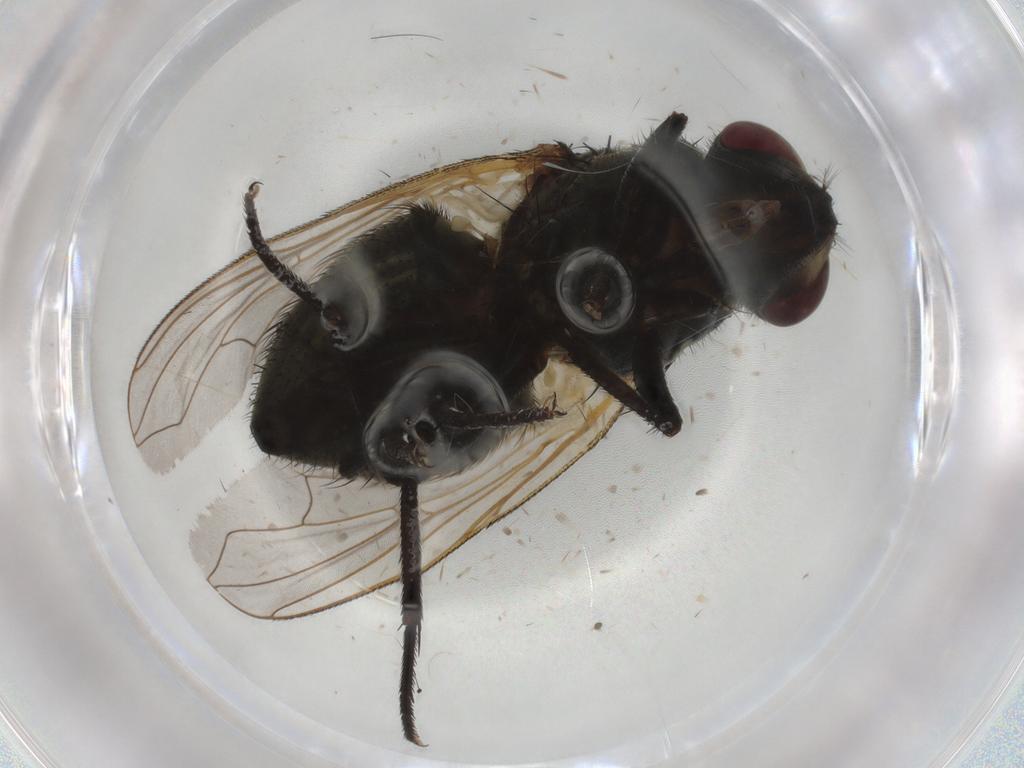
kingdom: Animalia
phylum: Arthropoda
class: Insecta
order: Diptera
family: Muscidae
